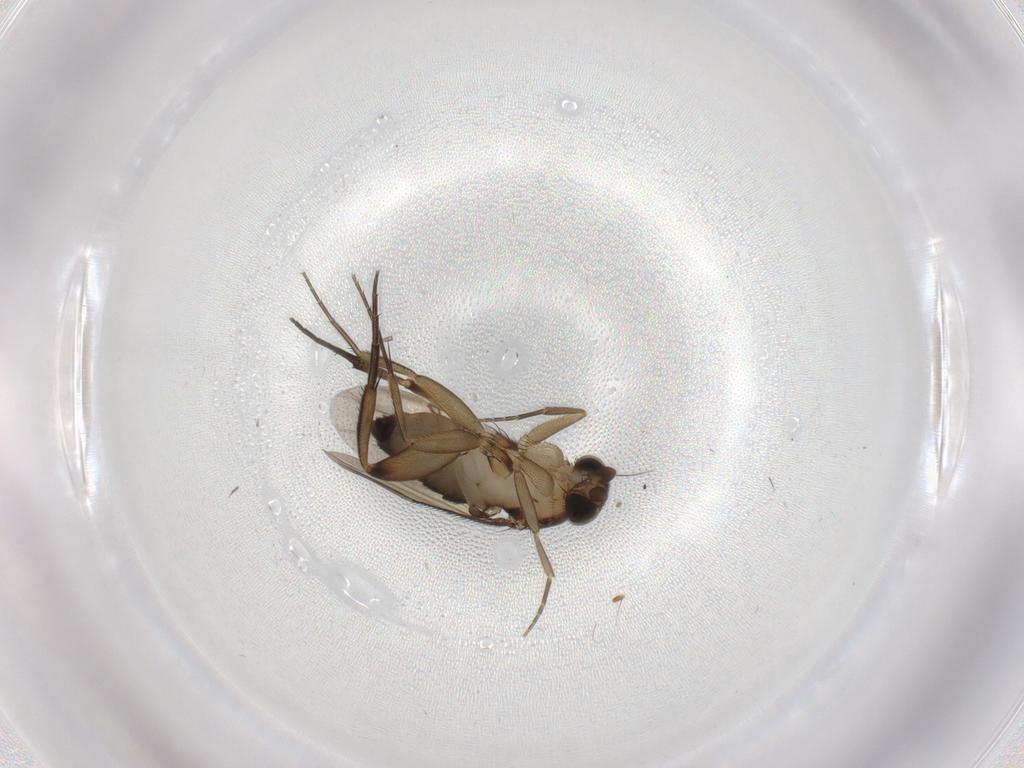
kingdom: Animalia
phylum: Arthropoda
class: Insecta
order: Diptera
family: Phoridae
